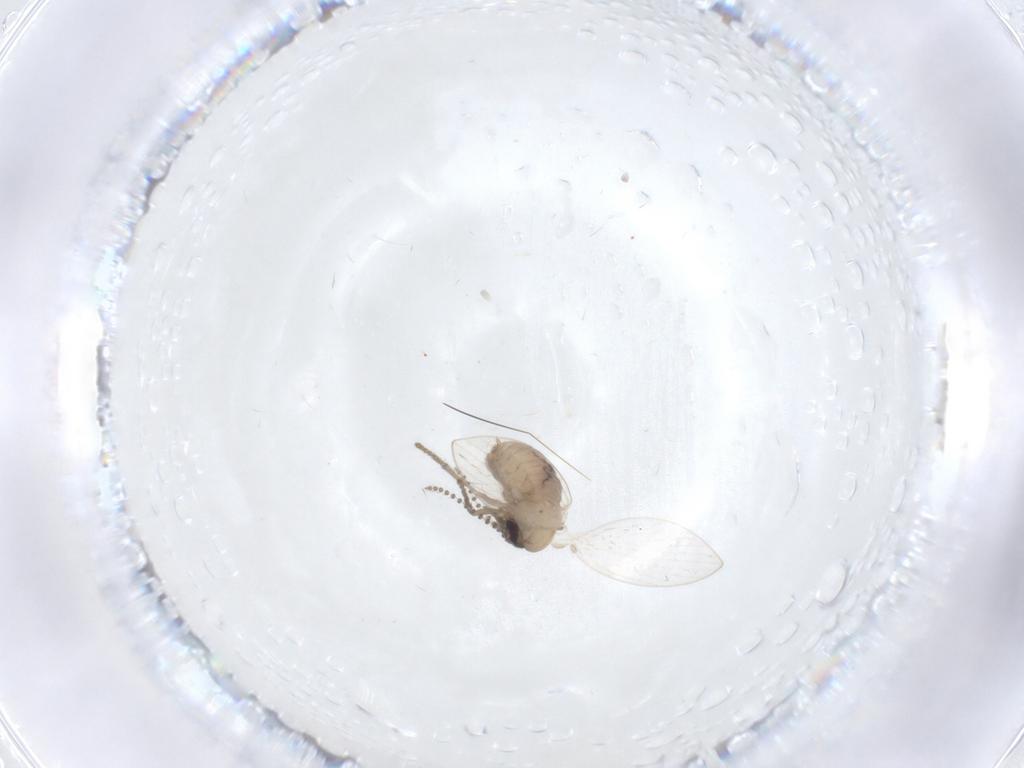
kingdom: Animalia
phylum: Arthropoda
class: Insecta
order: Diptera
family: Psychodidae
